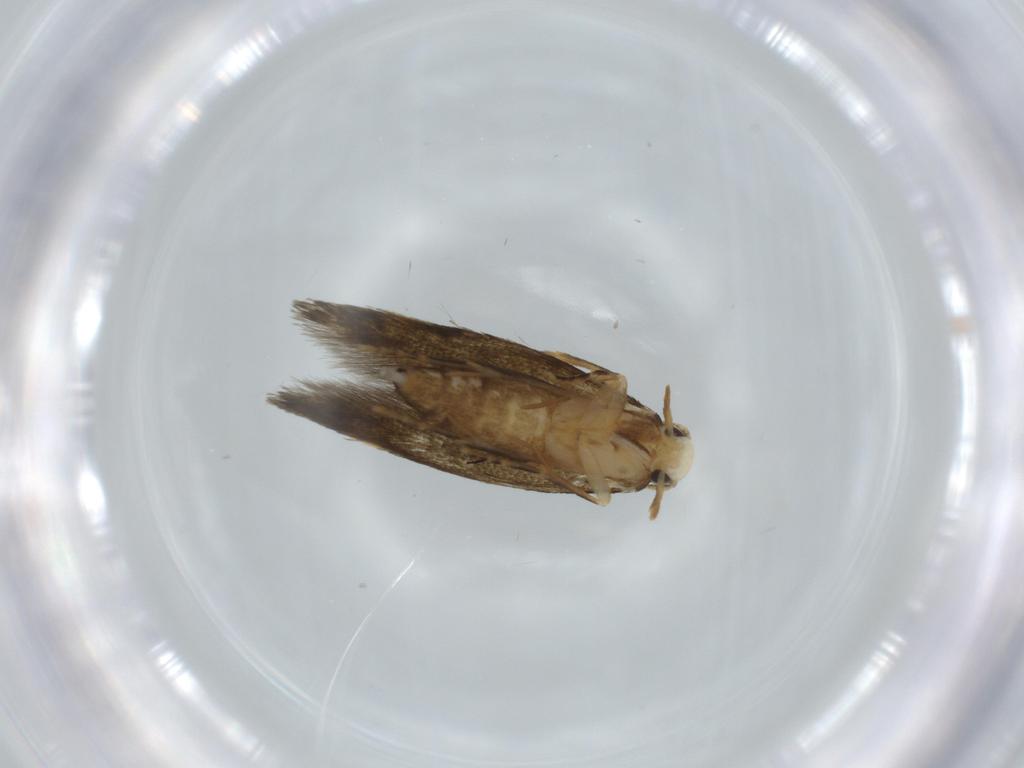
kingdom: Animalia
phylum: Arthropoda
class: Insecta
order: Lepidoptera
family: Tineidae
